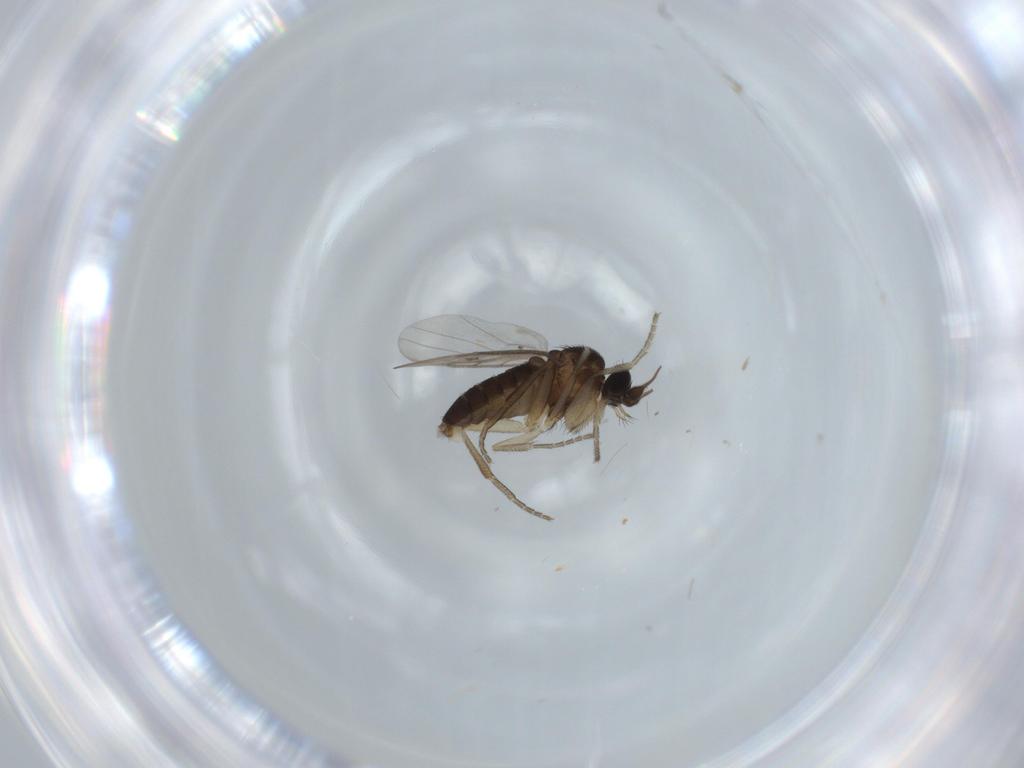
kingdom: Animalia
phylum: Arthropoda
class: Insecta
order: Diptera
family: Phoridae
